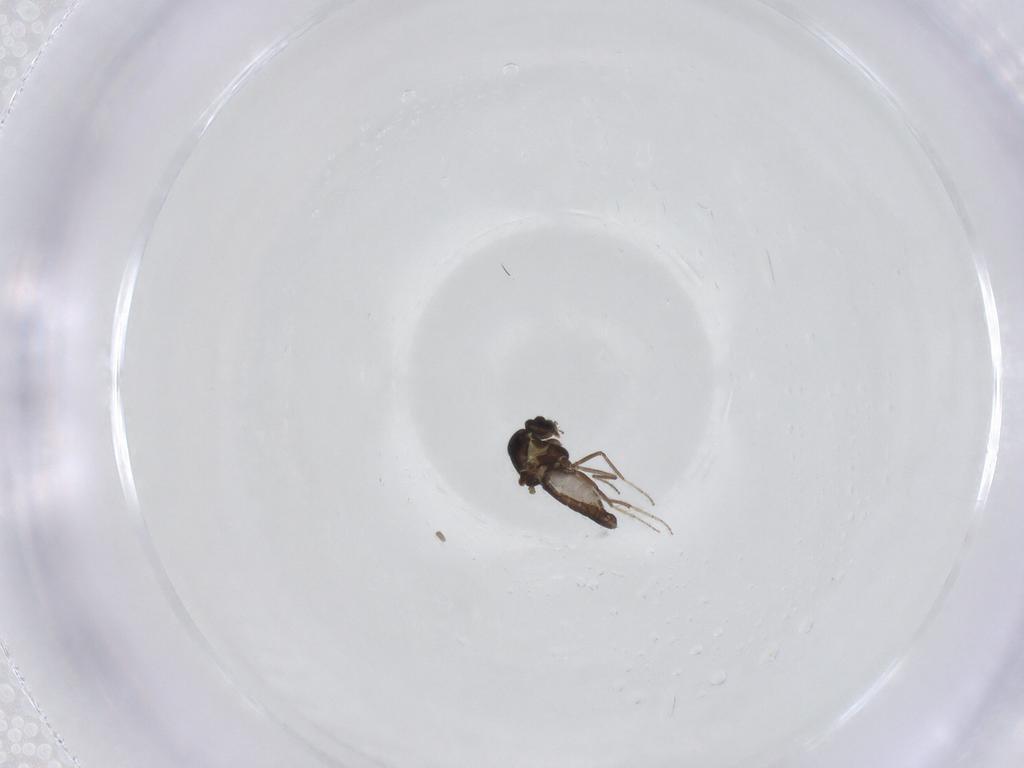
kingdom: Animalia
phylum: Arthropoda
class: Insecta
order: Diptera
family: Ceratopogonidae
